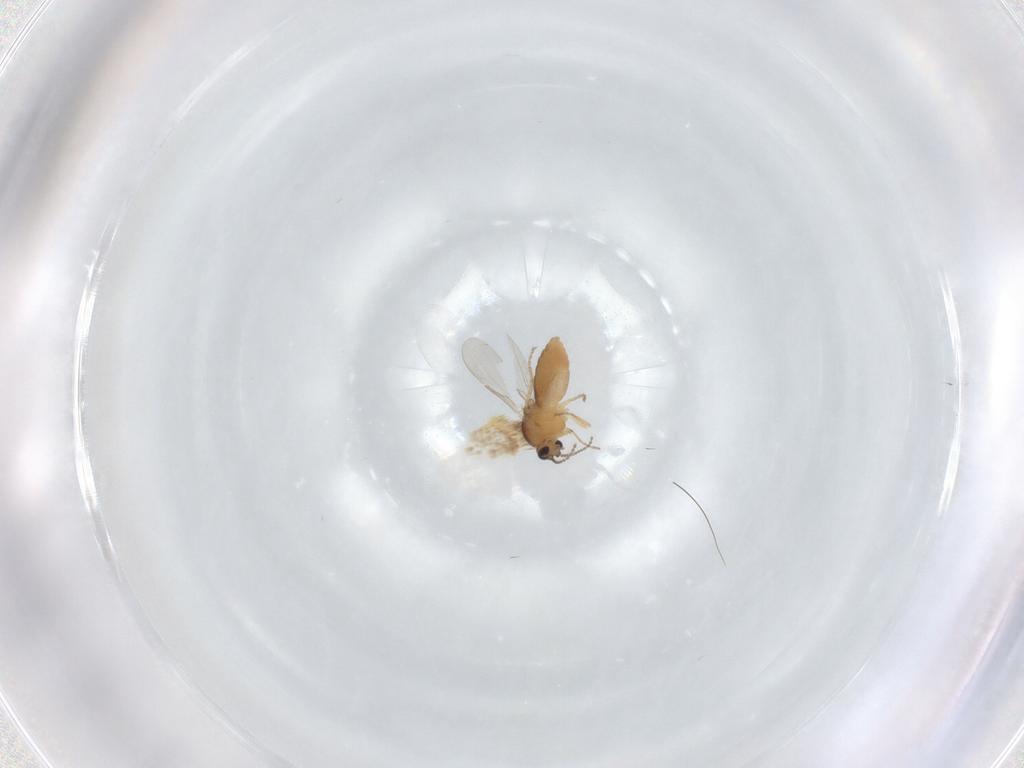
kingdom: Animalia
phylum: Arthropoda
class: Insecta
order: Diptera
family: Ceratopogonidae
